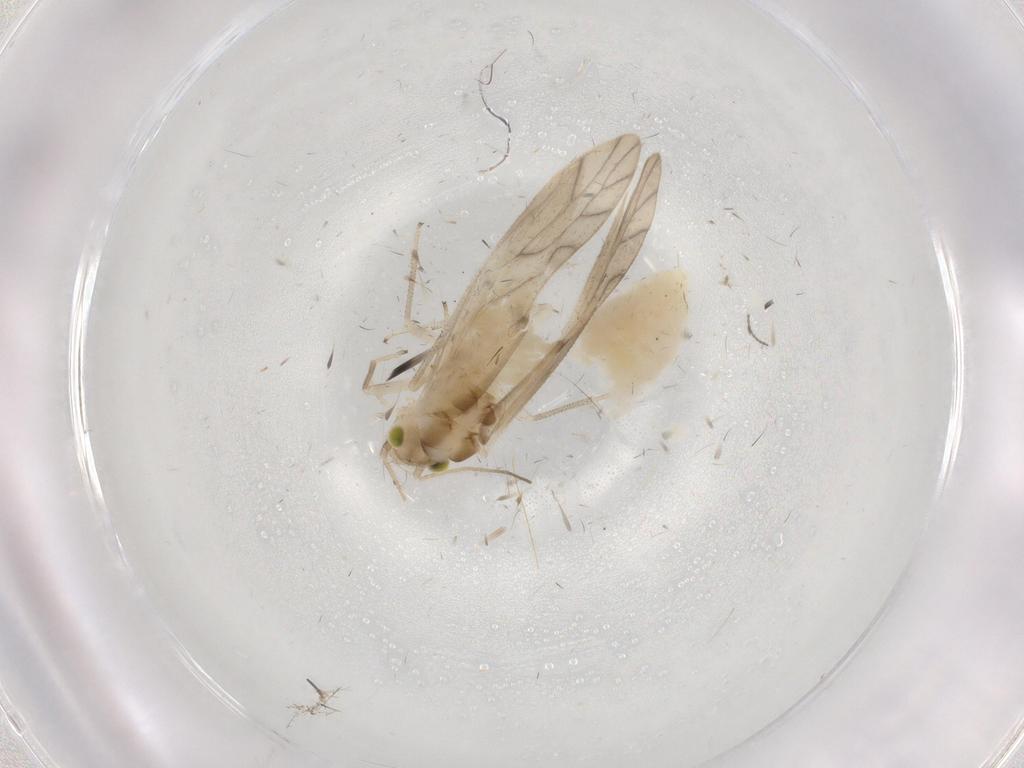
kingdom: Animalia
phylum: Arthropoda
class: Insecta
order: Psocodea
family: Caeciliusidae
